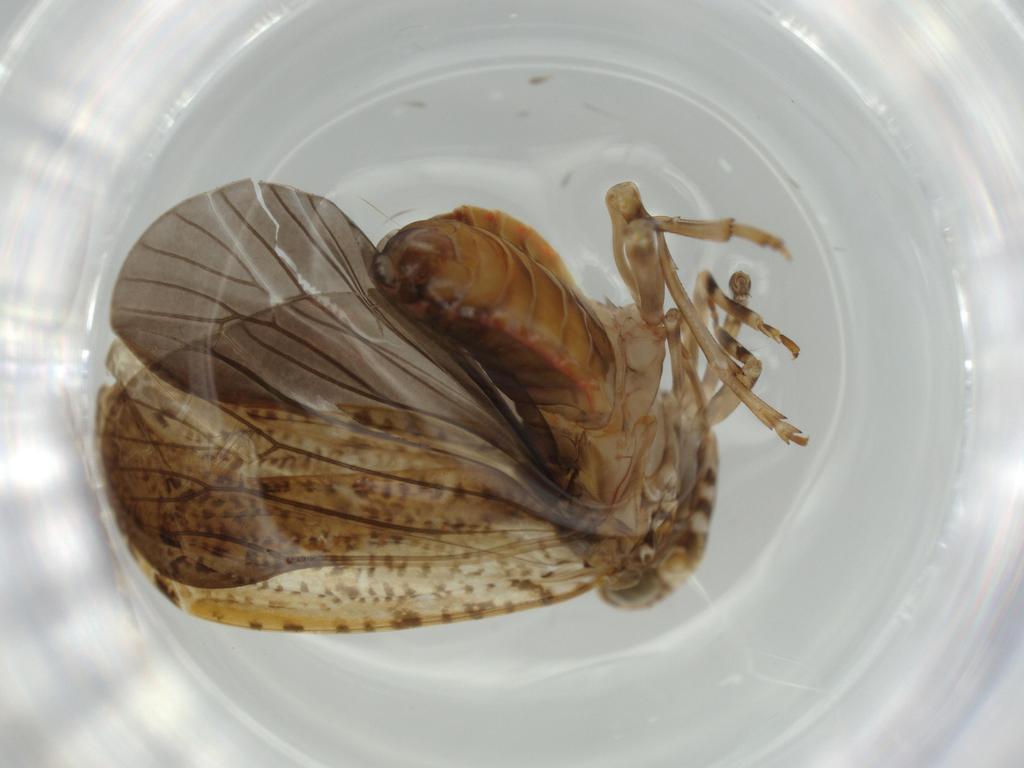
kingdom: Animalia
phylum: Arthropoda
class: Insecta
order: Hemiptera
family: Achilidae
